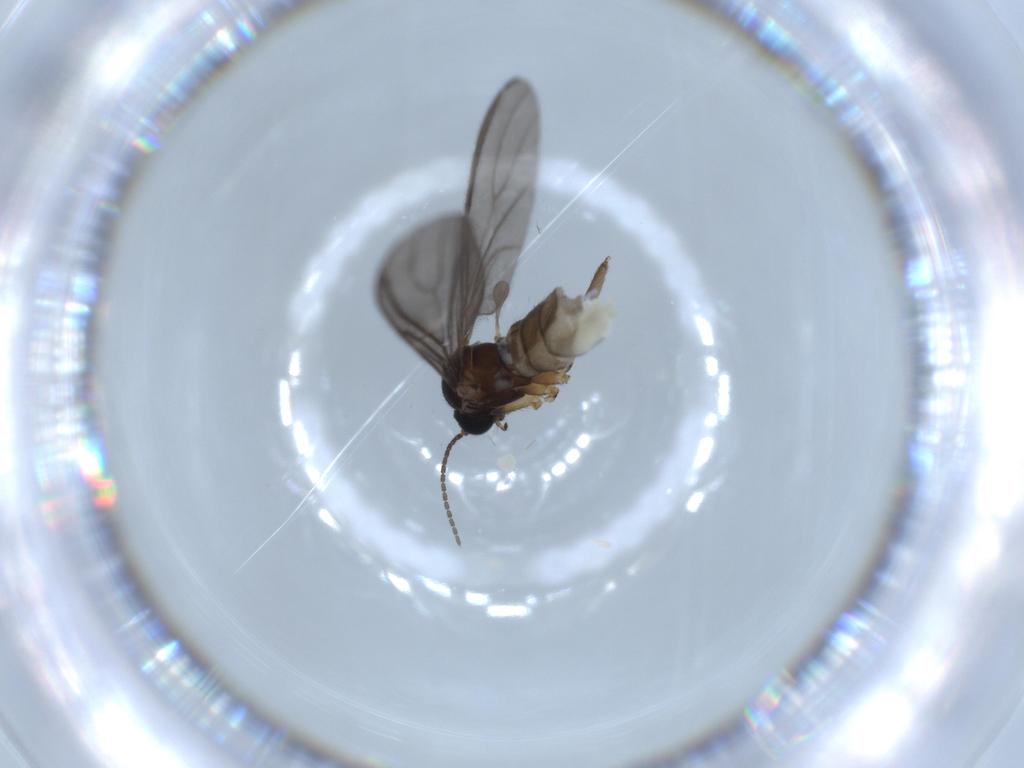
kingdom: Animalia
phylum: Arthropoda
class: Insecta
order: Diptera
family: Sciaridae
